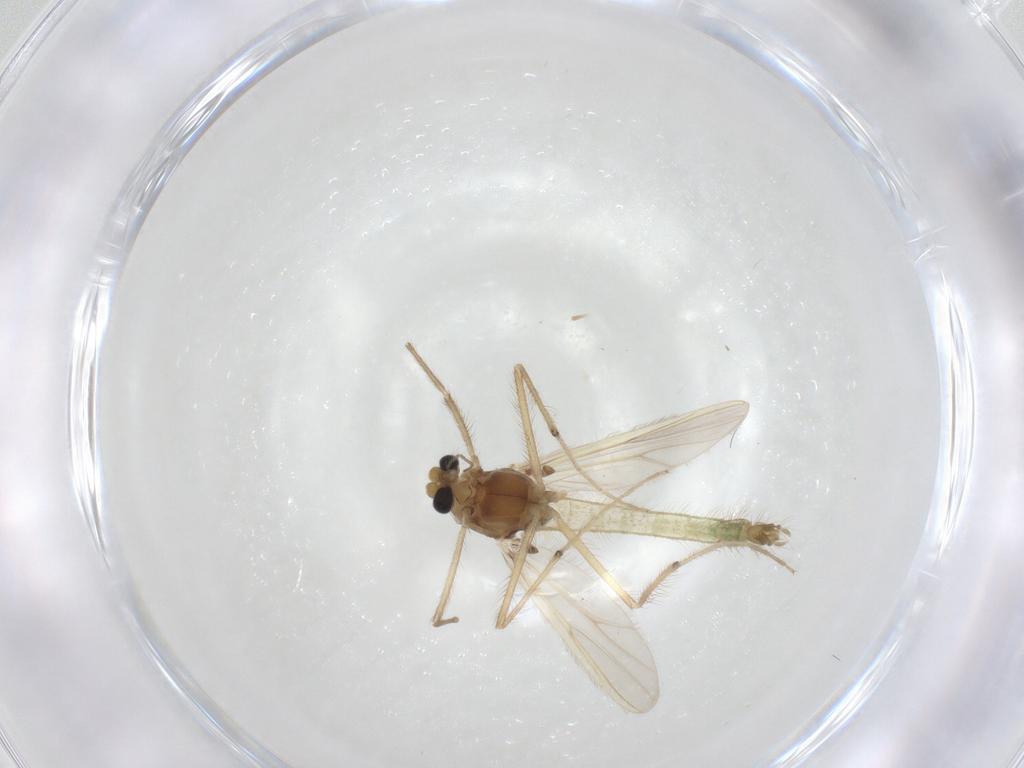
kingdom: Animalia
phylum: Arthropoda
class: Insecta
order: Diptera
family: Chironomidae
